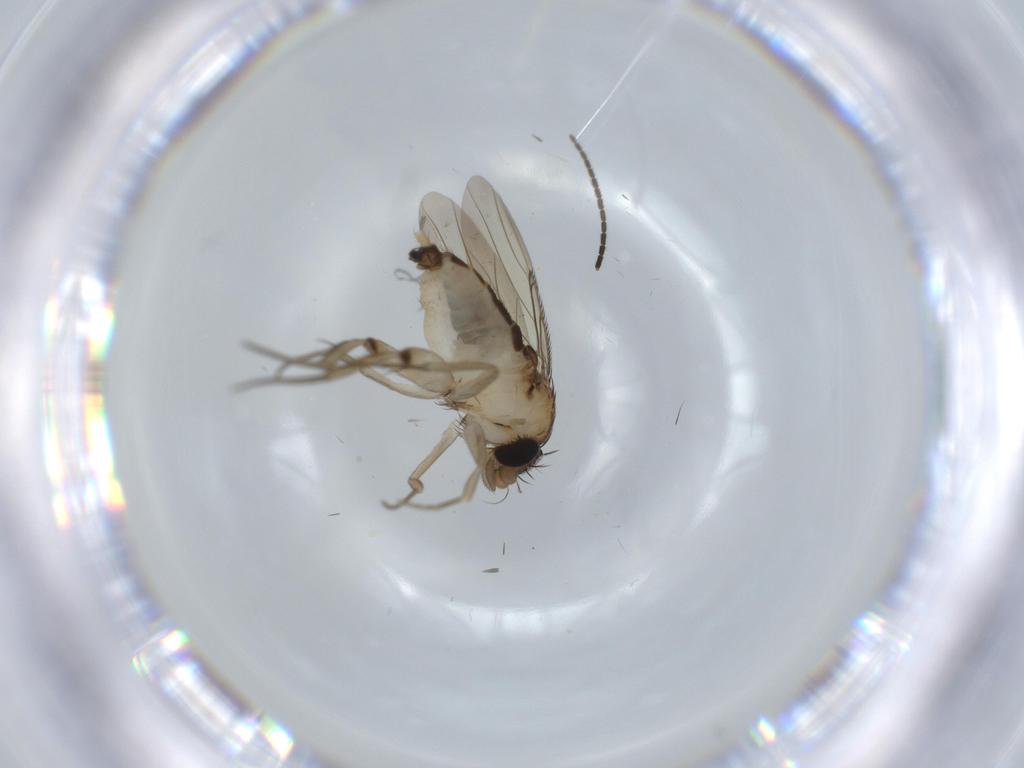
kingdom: Animalia
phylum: Arthropoda
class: Insecta
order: Diptera
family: Phoridae
